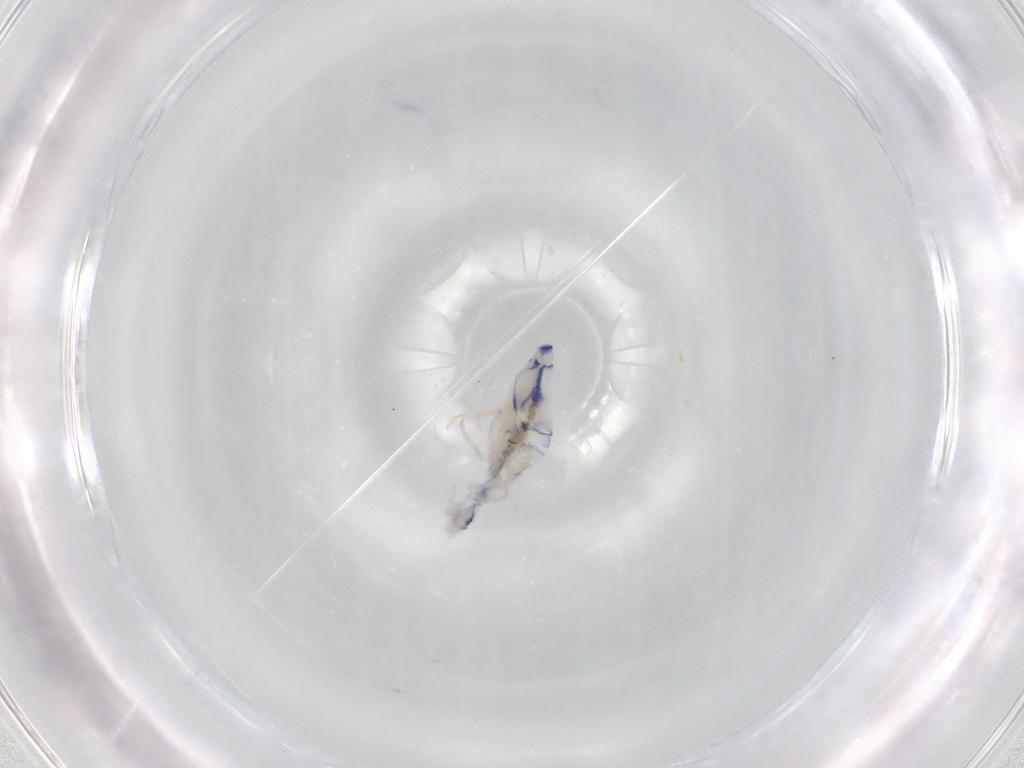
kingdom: Animalia
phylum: Arthropoda
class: Collembola
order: Entomobryomorpha
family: Entomobryidae
